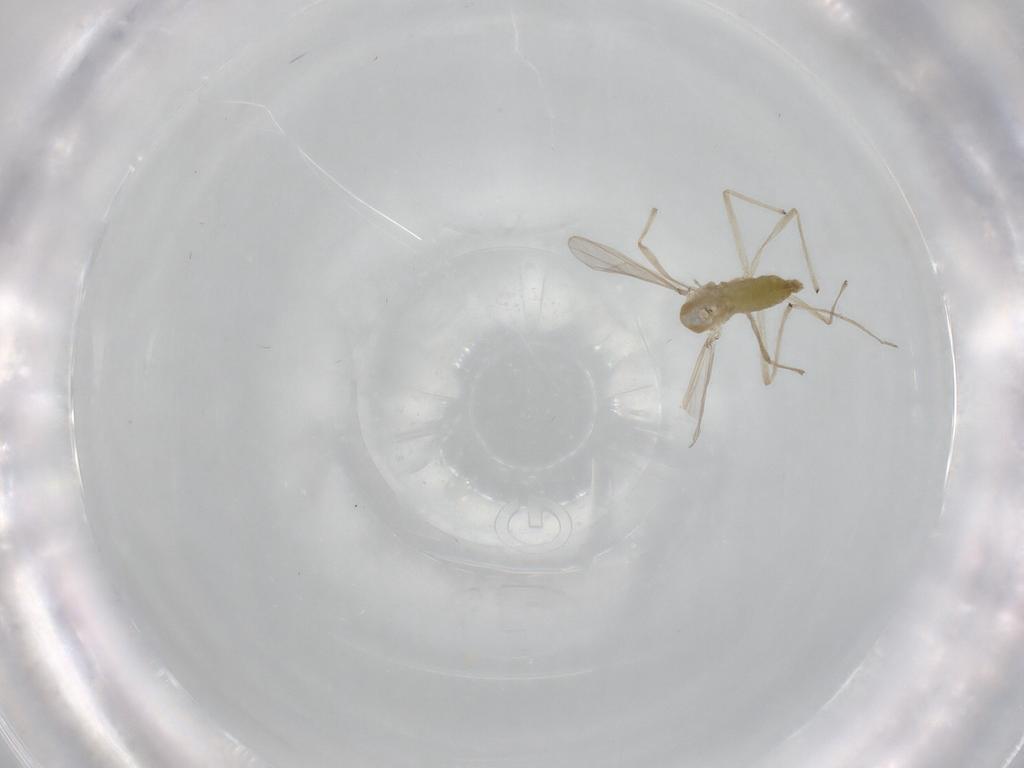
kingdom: Animalia
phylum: Arthropoda
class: Insecta
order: Diptera
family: Chironomidae
